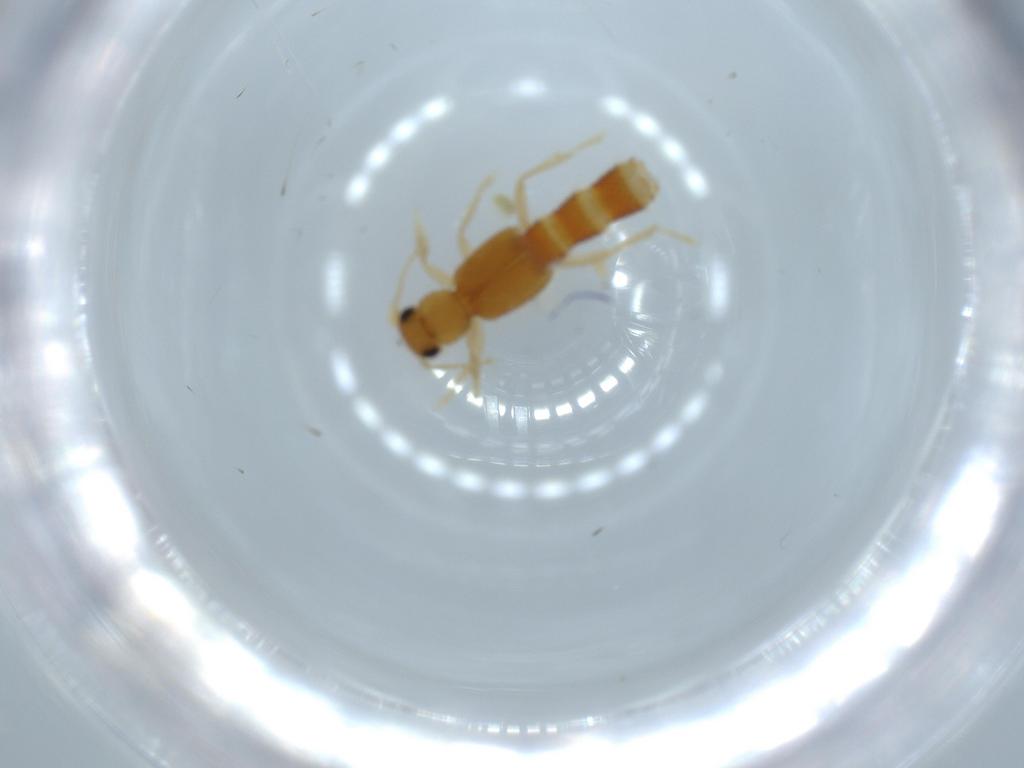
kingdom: Animalia
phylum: Arthropoda
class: Insecta
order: Coleoptera
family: Staphylinidae
